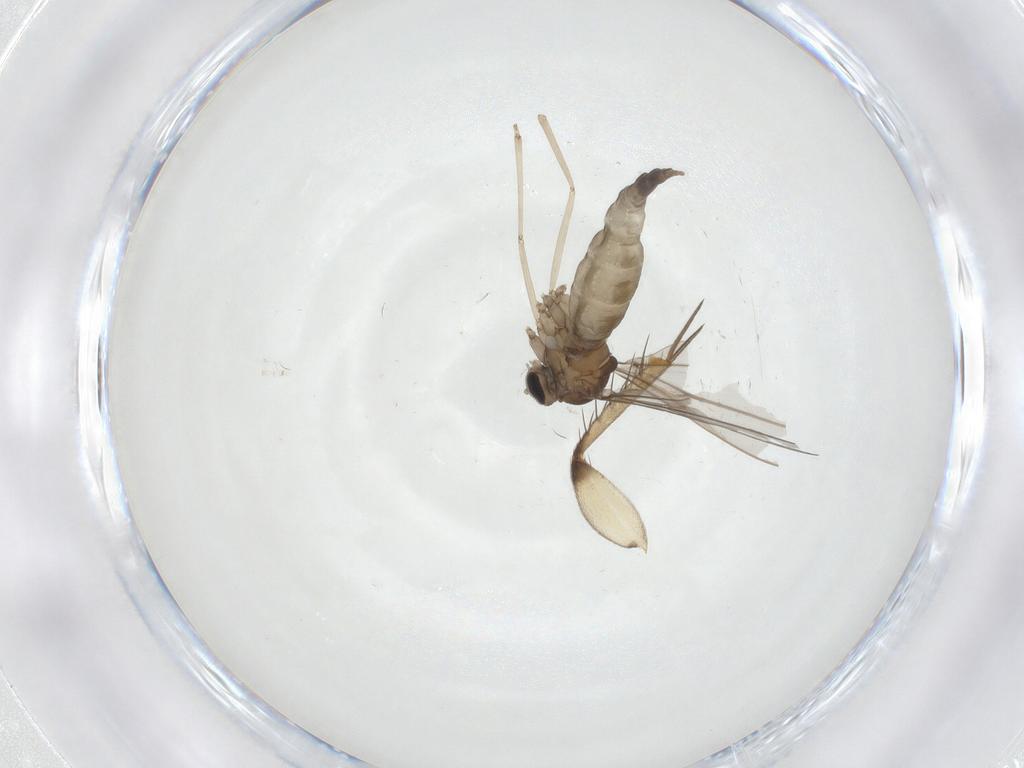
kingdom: Animalia
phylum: Arthropoda
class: Insecta
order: Diptera
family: Cecidomyiidae
